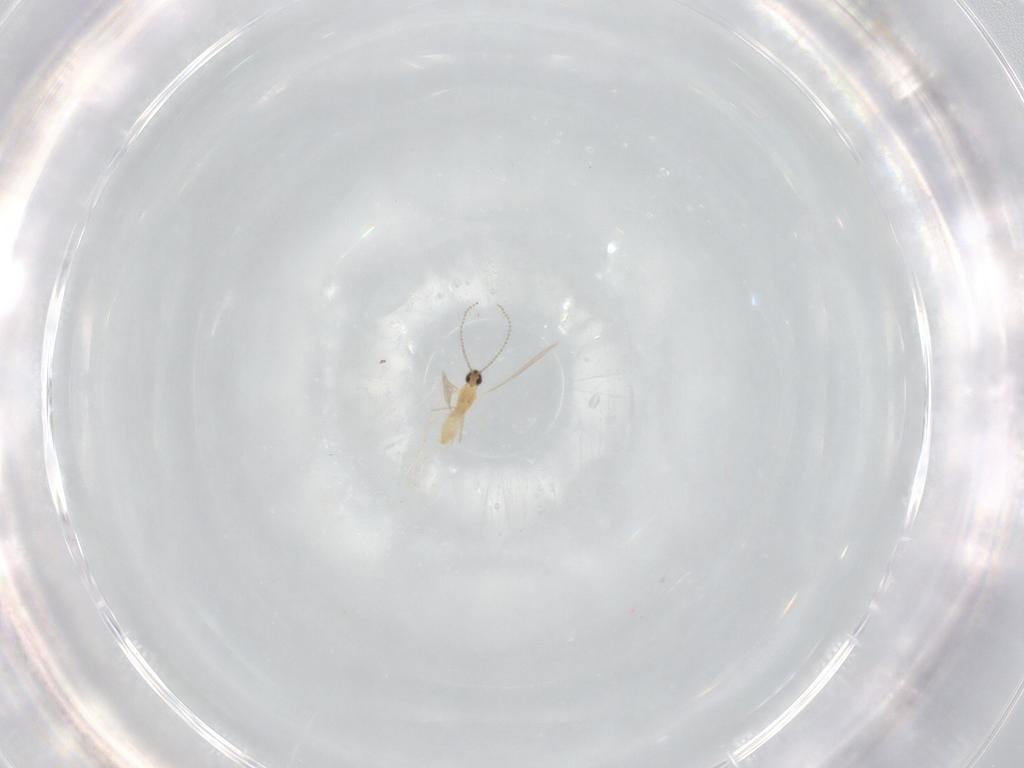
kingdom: Animalia
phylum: Arthropoda
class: Insecta
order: Diptera
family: Cecidomyiidae
